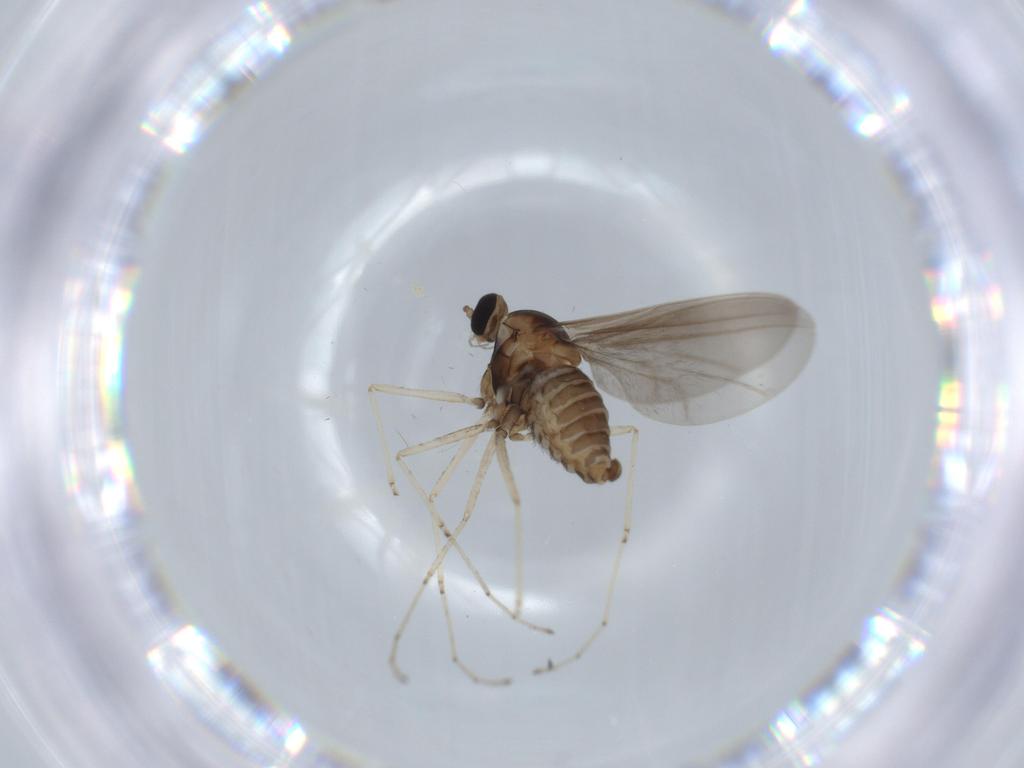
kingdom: Animalia
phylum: Arthropoda
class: Insecta
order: Diptera
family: Cecidomyiidae
